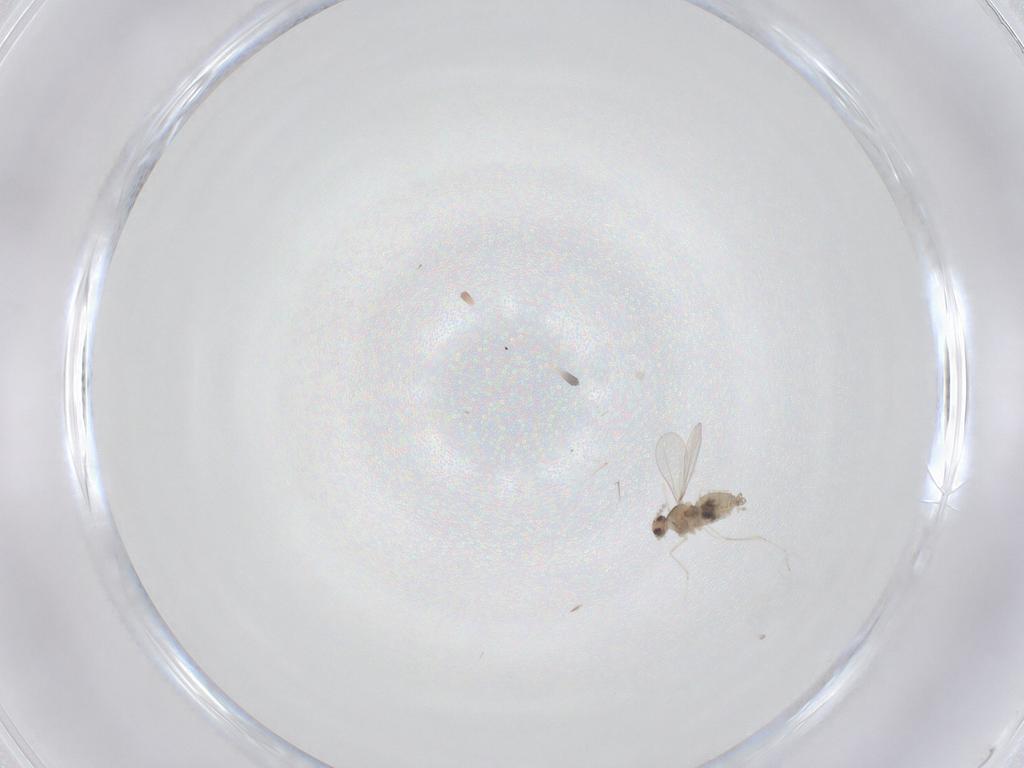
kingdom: Animalia
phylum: Arthropoda
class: Insecta
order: Diptera
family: Cecidomyiidae
